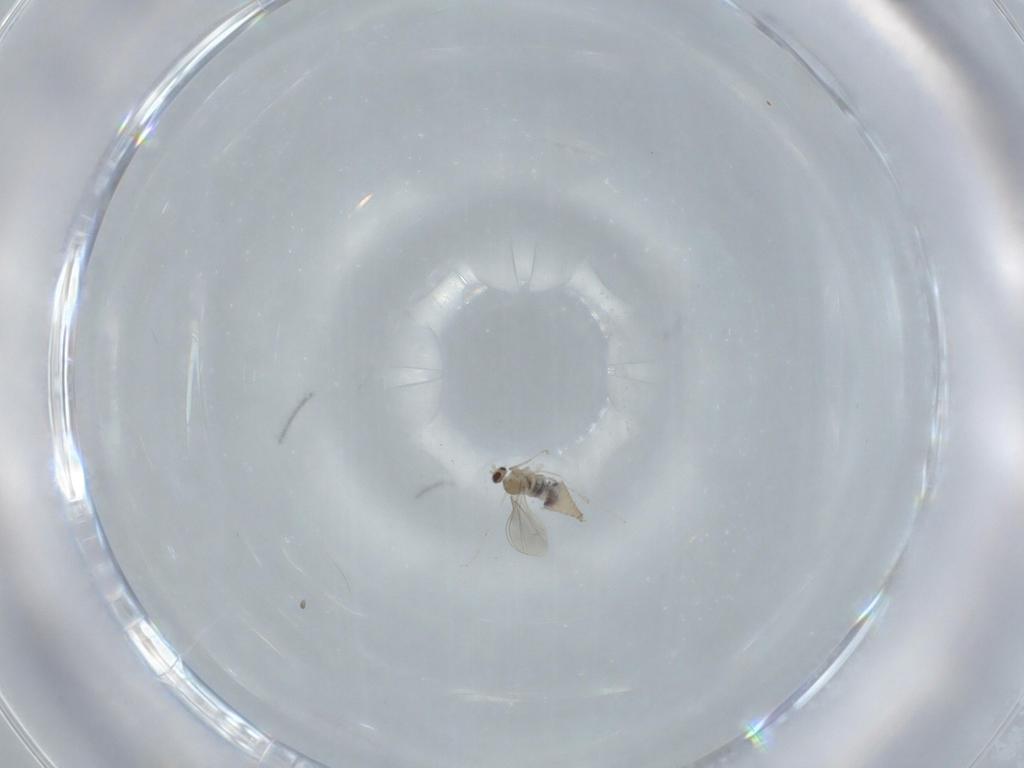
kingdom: Animalia
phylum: Arthropoda
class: Insecta
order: Diptera
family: Cecidomyiidae
